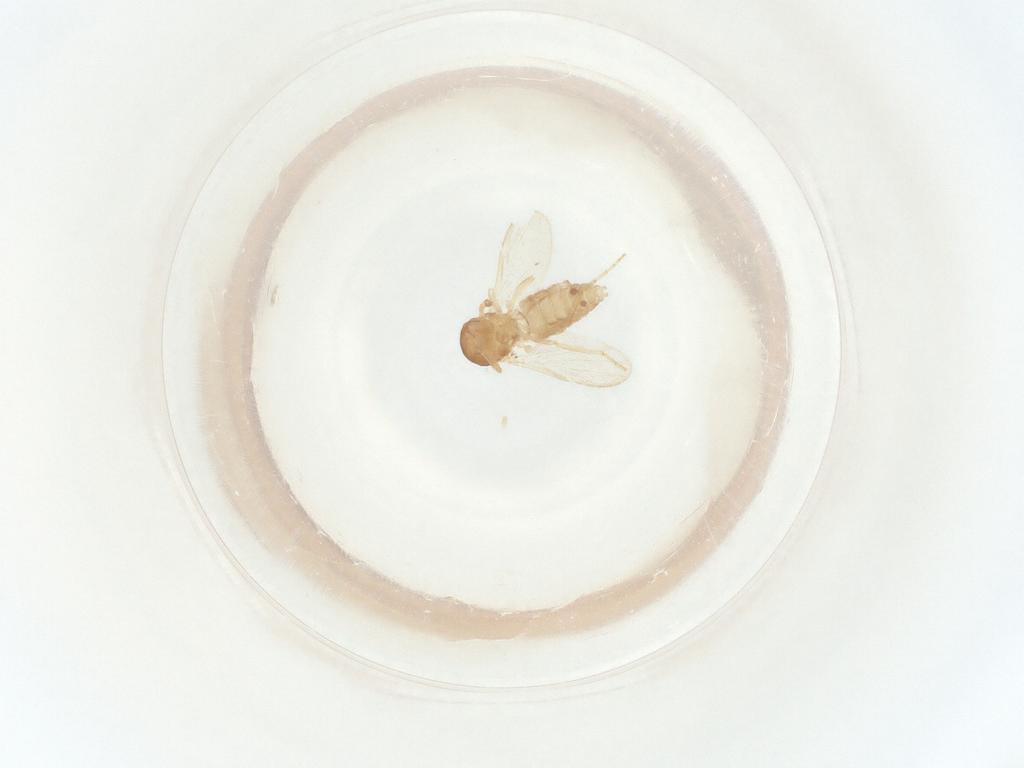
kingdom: Animalia
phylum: Arthropoda
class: Insecta
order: Diptera
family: Ceratopogonidae
